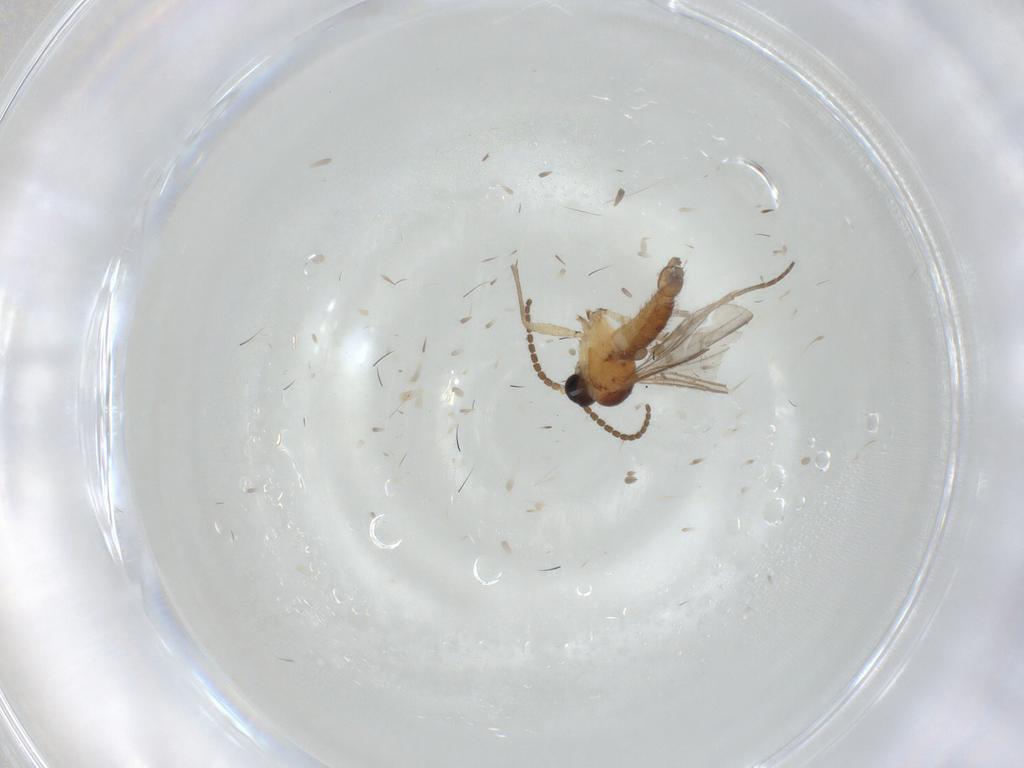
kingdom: Animalia
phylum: Arthropoda
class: Insecta
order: Diptera
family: Sciaridae
